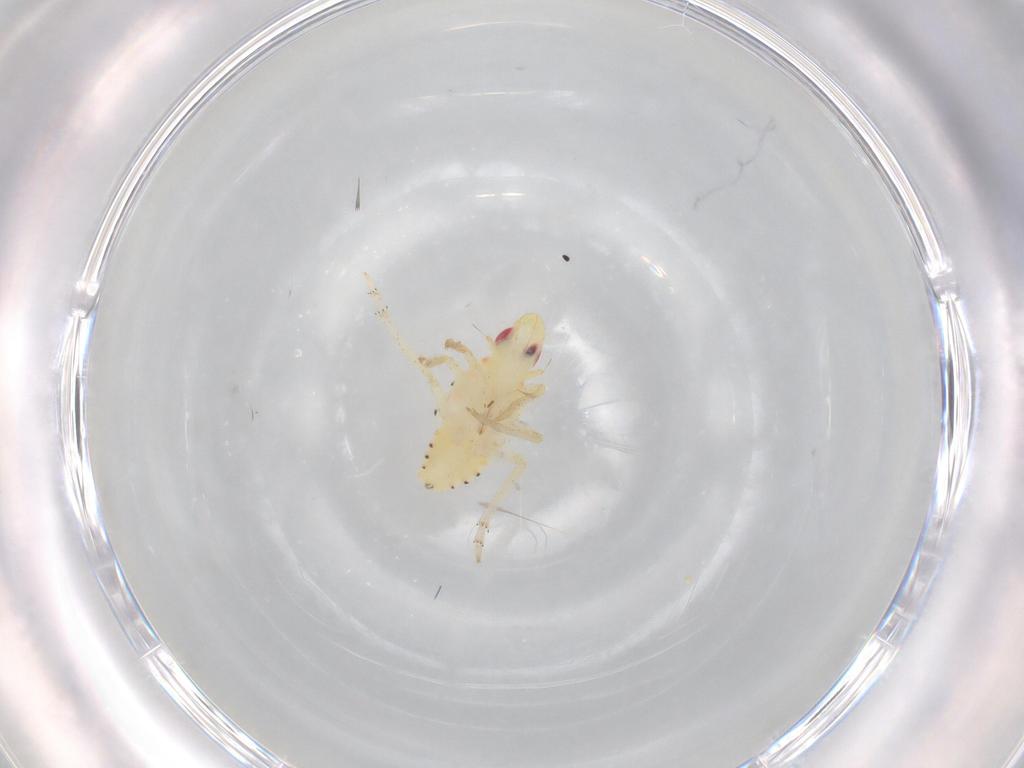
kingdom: Animalia
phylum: Arthropoda
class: Insecta
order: Hemiptera
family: Tropiduchidae
